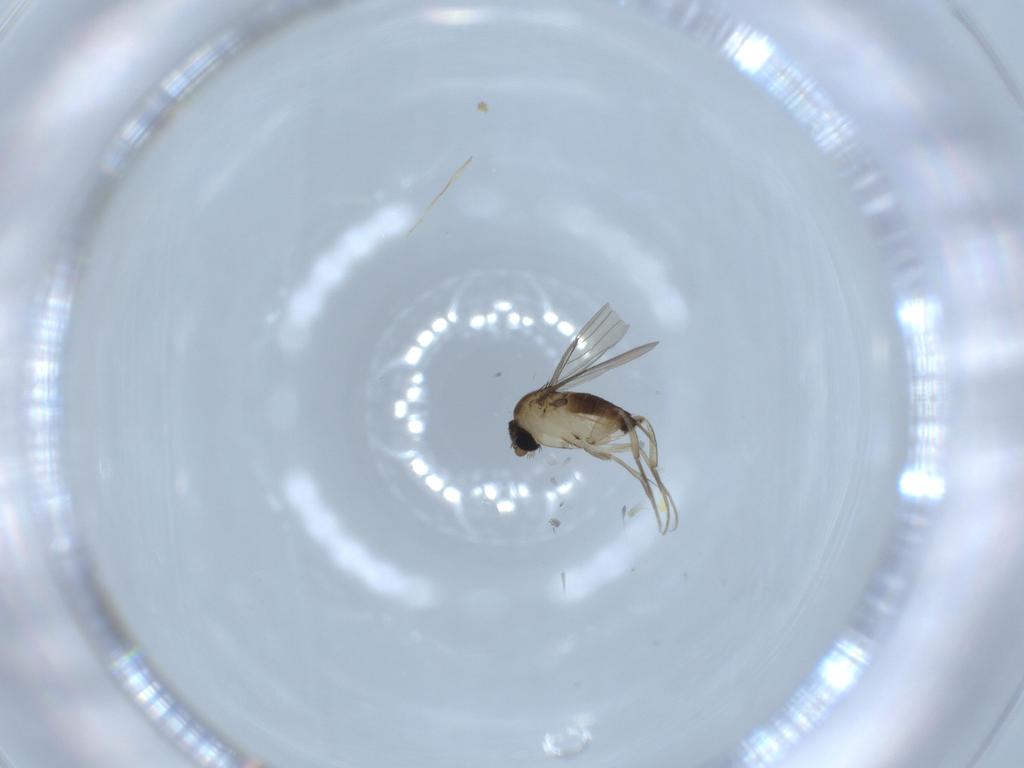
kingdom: Animalia
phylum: Arthropoda
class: Insecta
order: Diptera
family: Phoridae
